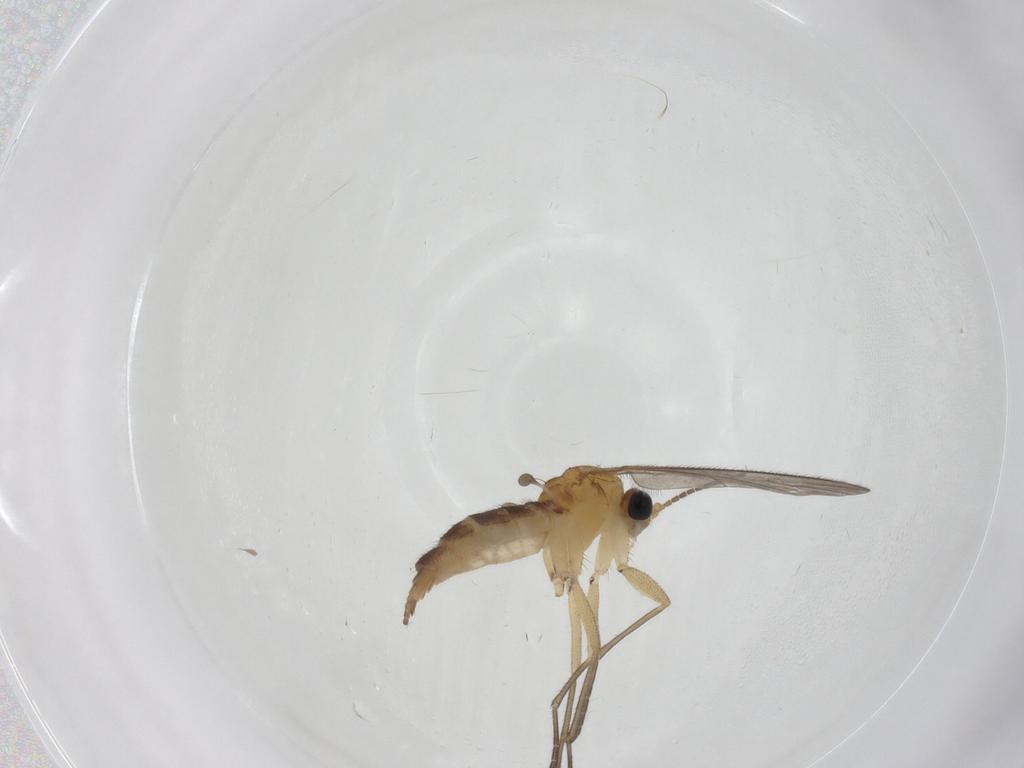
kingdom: Animalia
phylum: Arthropoda
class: Insecta
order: Diptera
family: Sciaridae
